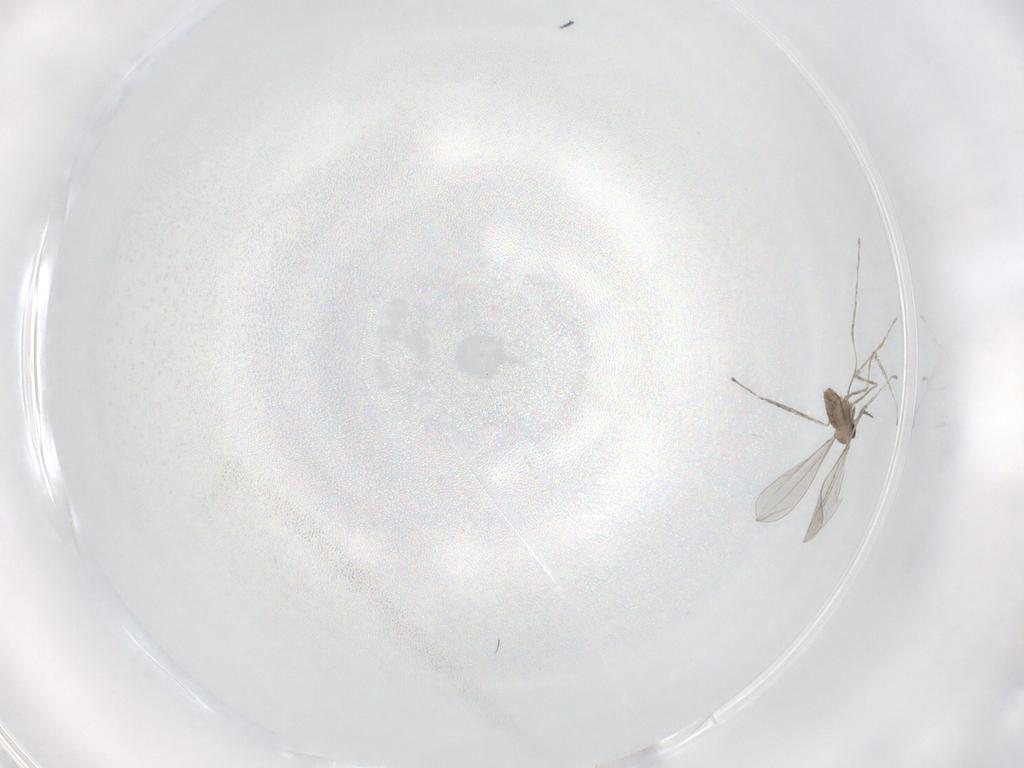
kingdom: Animalia
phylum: Arthropoda
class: Insecta
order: Diptera
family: Cecidomyiidae
